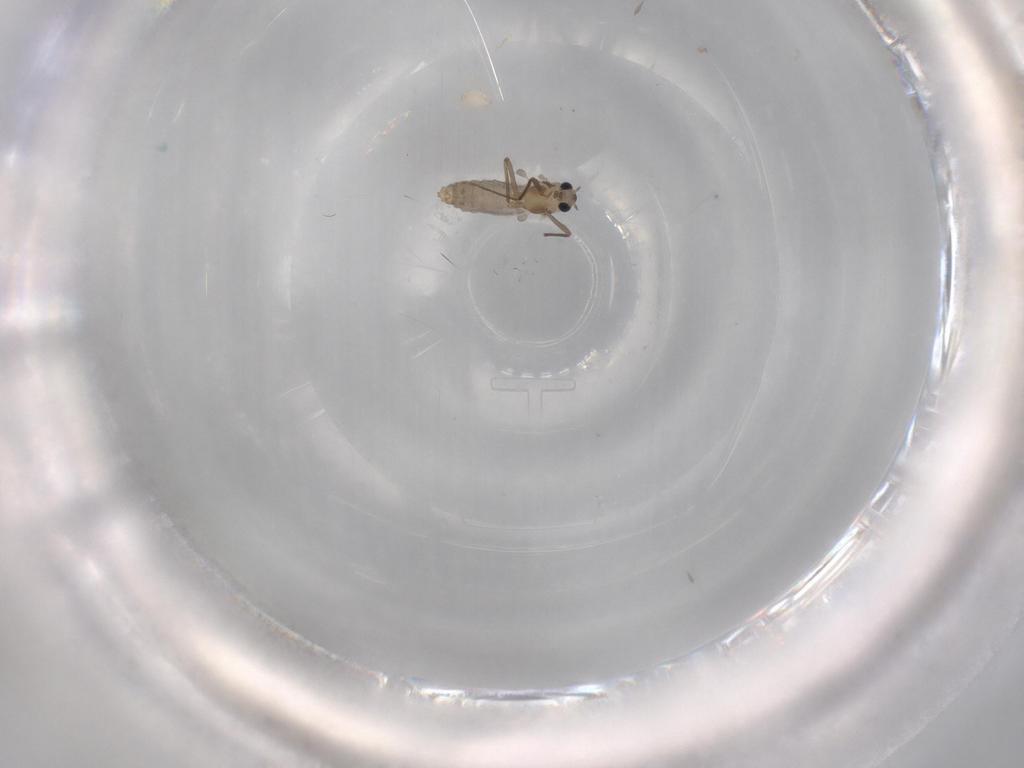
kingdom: Animalia
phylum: Arthropoda
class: Insecta
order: Diptera
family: Chironomidae
